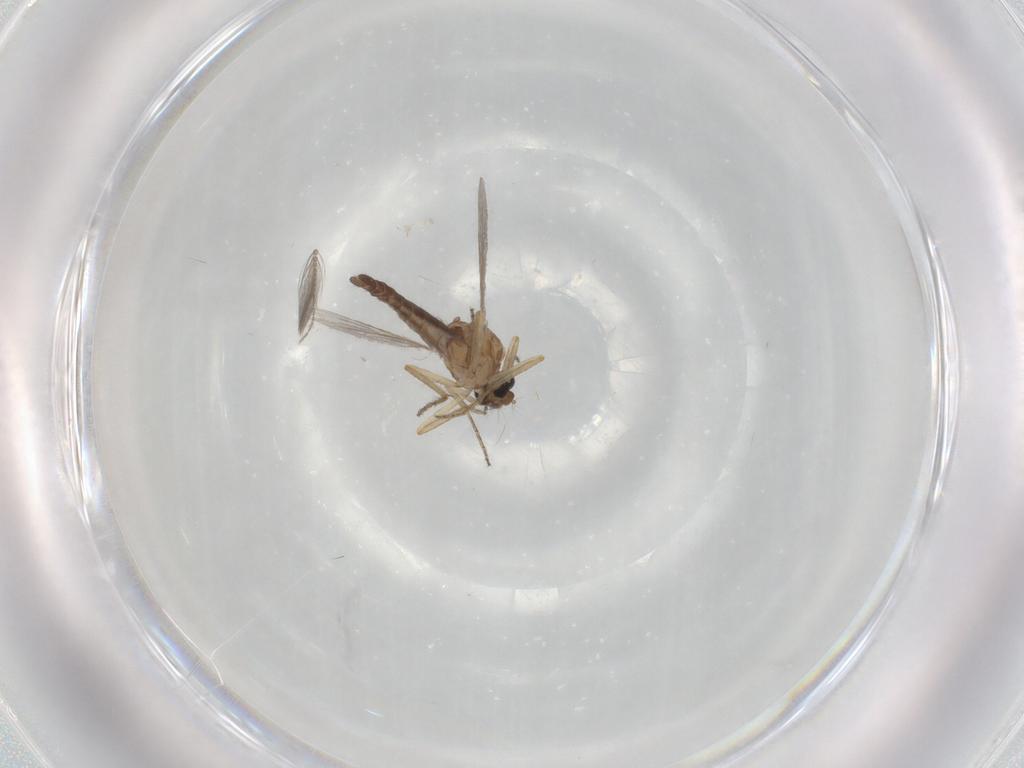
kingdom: Animalia
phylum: Arthropoda
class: Insecta
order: Diptera
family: Ceratopogonidae
